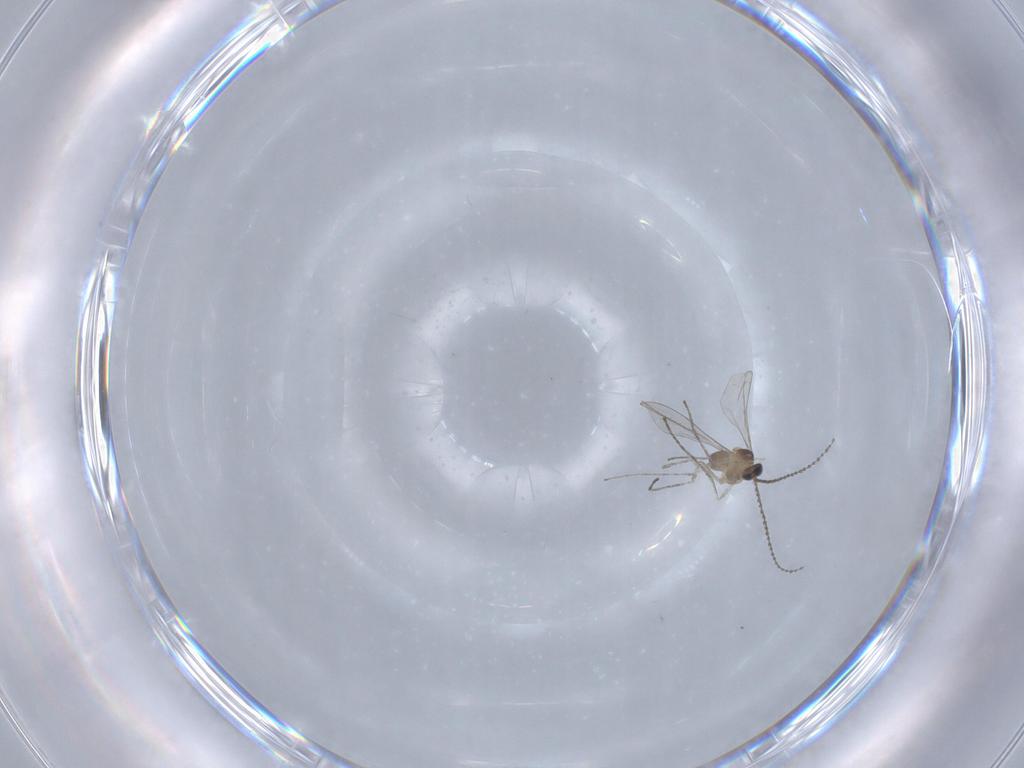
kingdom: Animalia
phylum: Arthropoda
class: Insecta
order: Diptera
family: Cecidomyiidae
